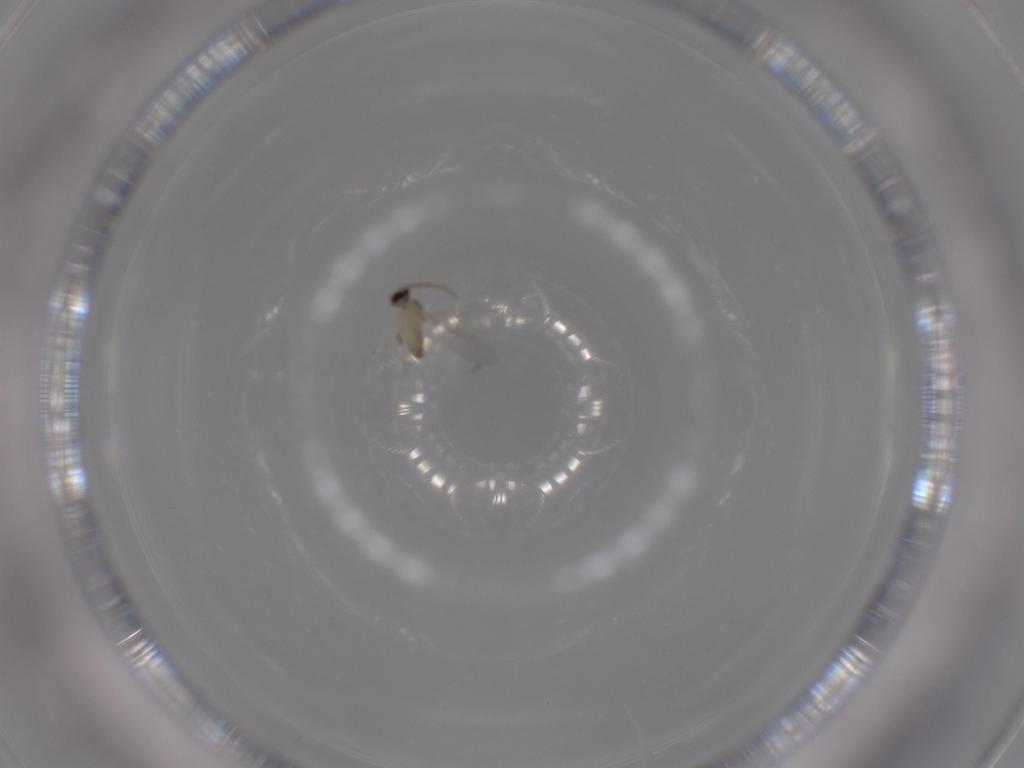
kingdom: Animalia
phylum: Arthropoda
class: Insecta
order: Diptera
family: Cecidomyiidae
